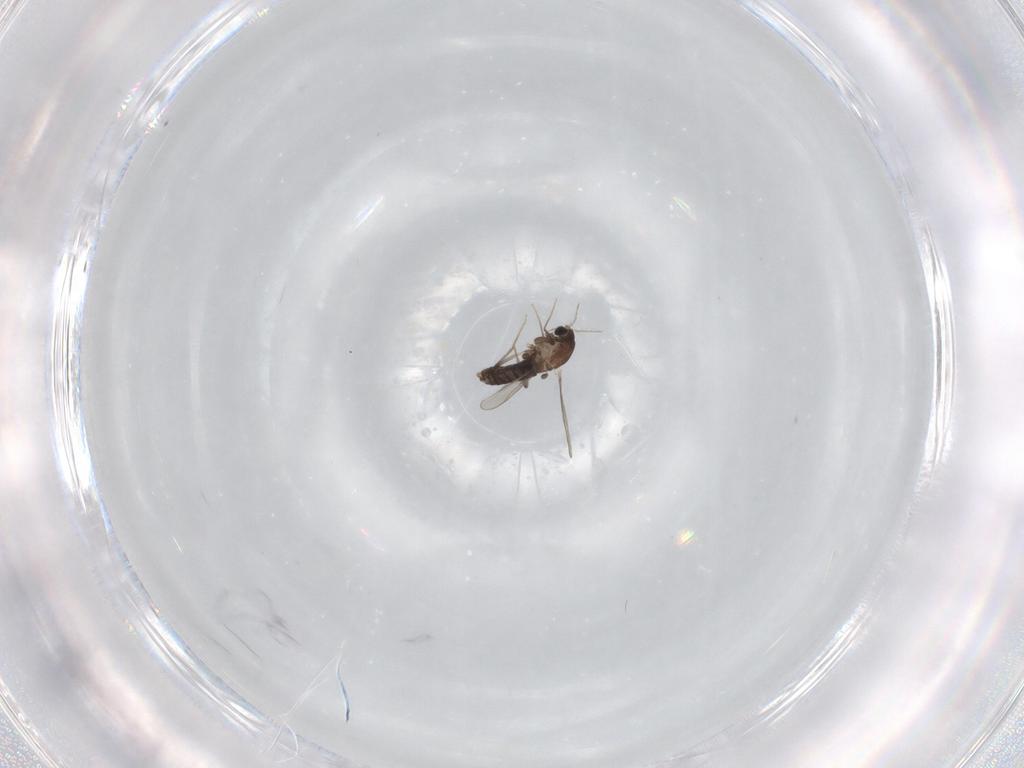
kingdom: Animalia
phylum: Arthropoda
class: Insecta
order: Diptera
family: Chironomidae
